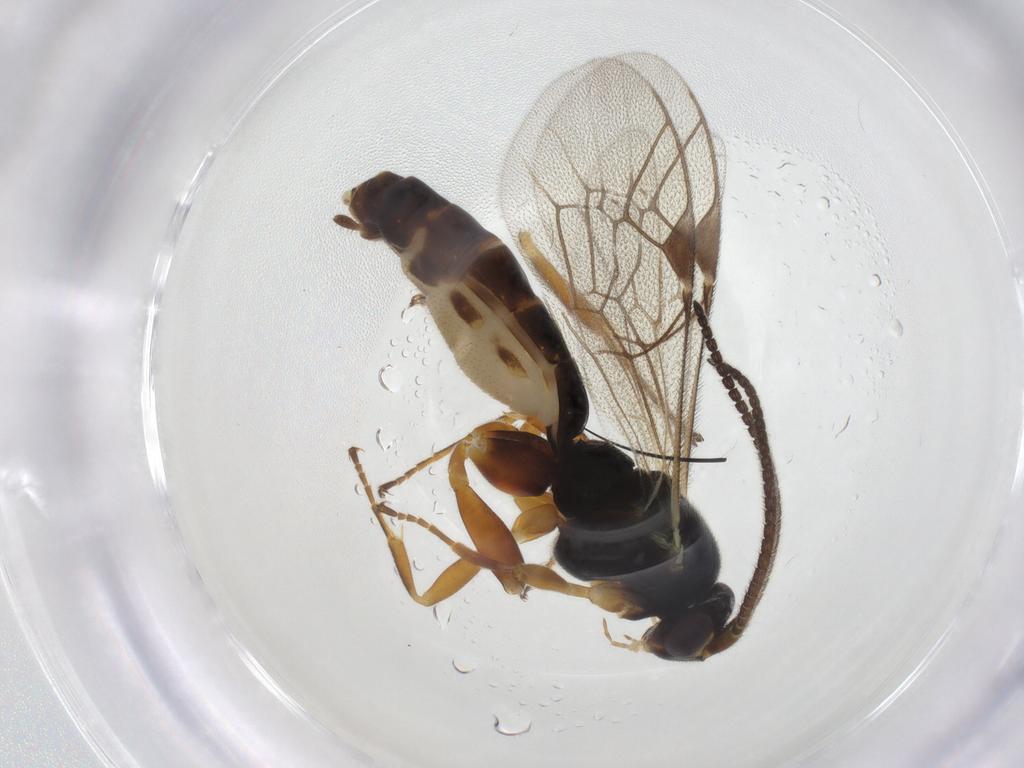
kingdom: Animalia
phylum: Arthropoda
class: Insecta
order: Hymenoptera
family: Ichneumonidae
